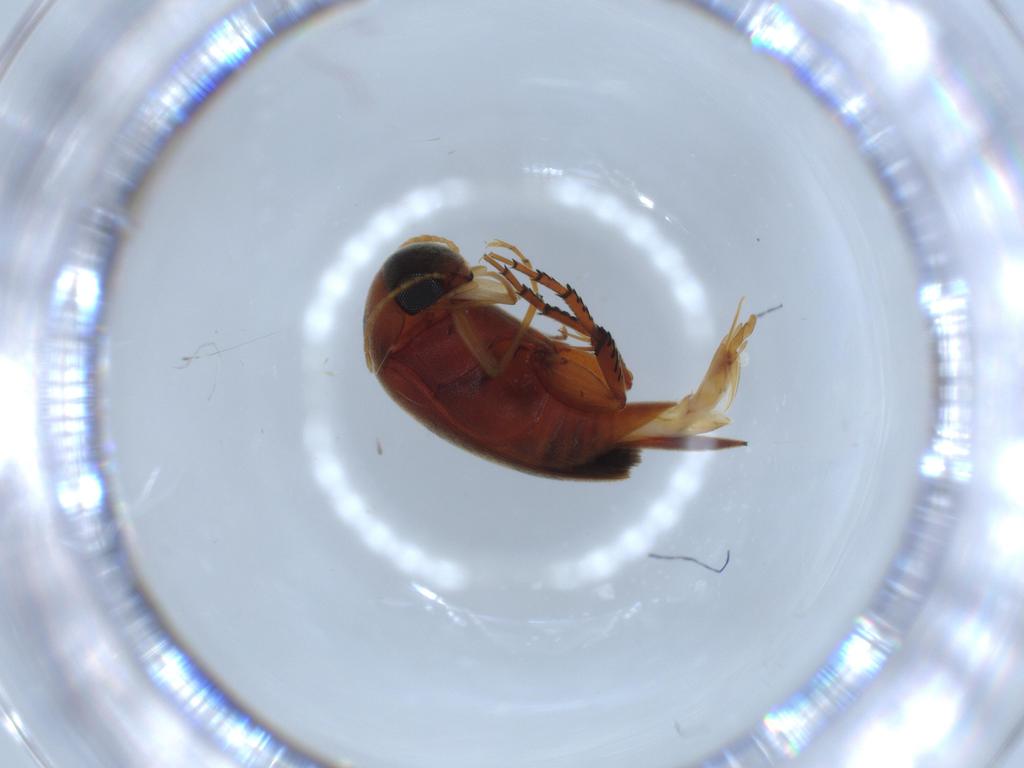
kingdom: Animalia
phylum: Arthropoda
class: Insecta
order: Coleoptera
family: Mordellidae
